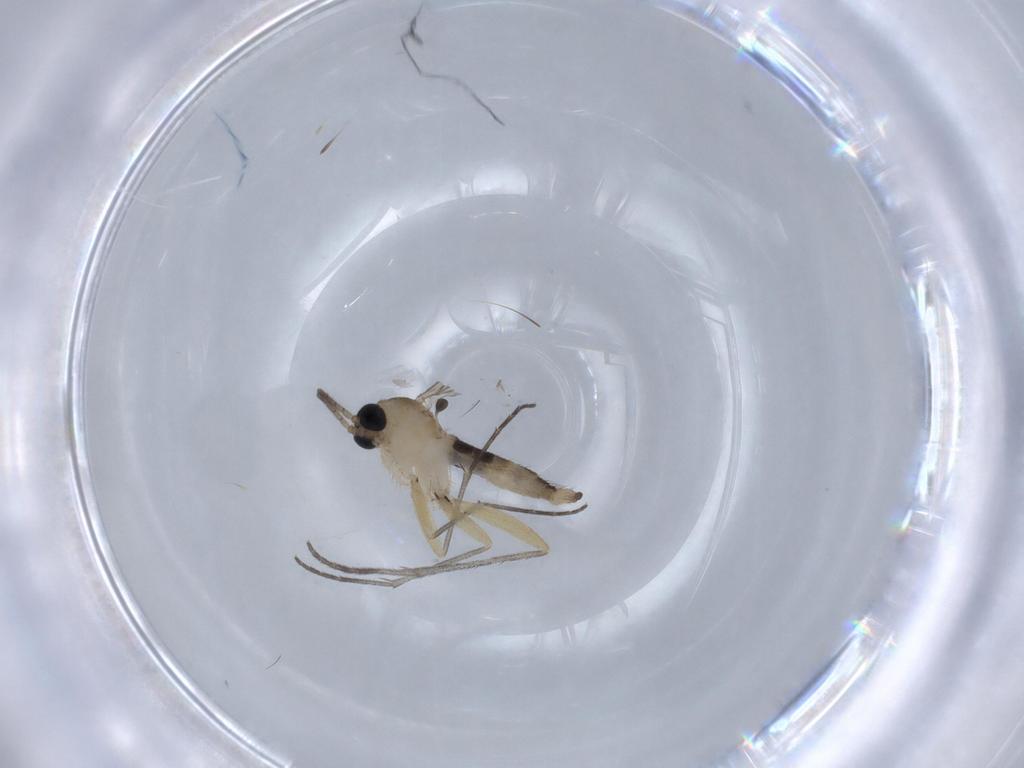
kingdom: Animalia
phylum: Arthropoda
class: Insecta
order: Diptera
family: Sciaridae
